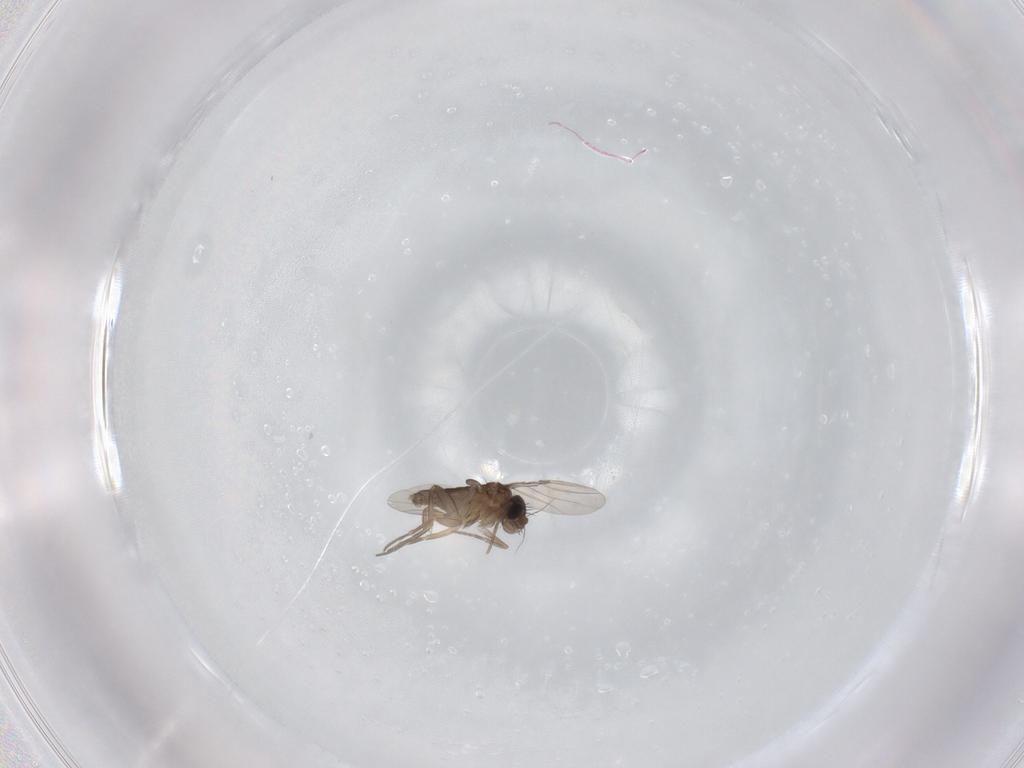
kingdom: Animalia
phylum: Arthropoda
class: Insecta
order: Diptera
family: Phoridae
